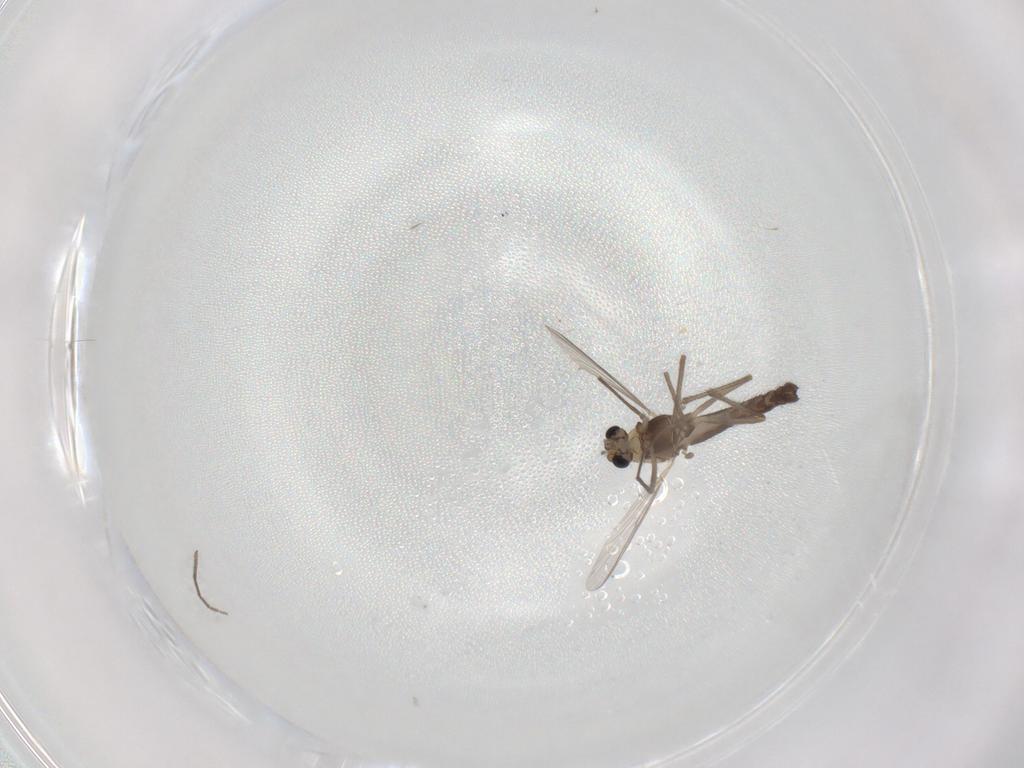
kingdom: Animalia
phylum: Arthropoda
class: Insecta
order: Diptera
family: Chironomidae
